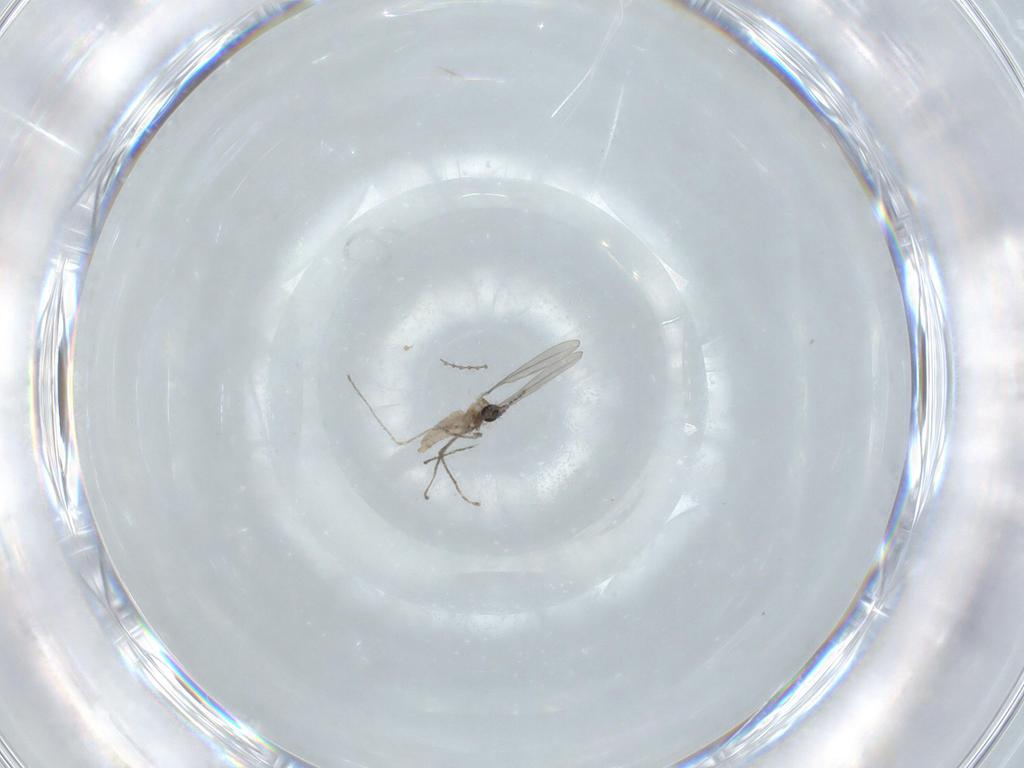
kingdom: Animalia
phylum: Arthropoda
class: Insecta
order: Diptera
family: Cecidomyiidae
